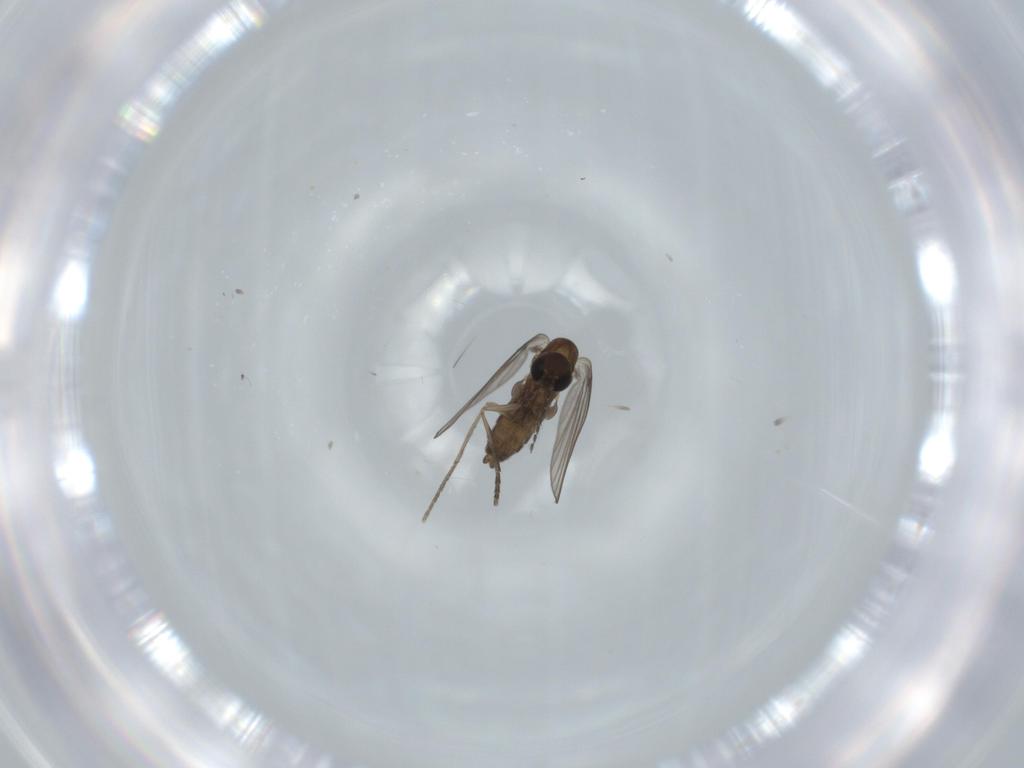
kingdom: Animalia
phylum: Arthropoda
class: Insecta
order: Diptera
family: Psychodidae
